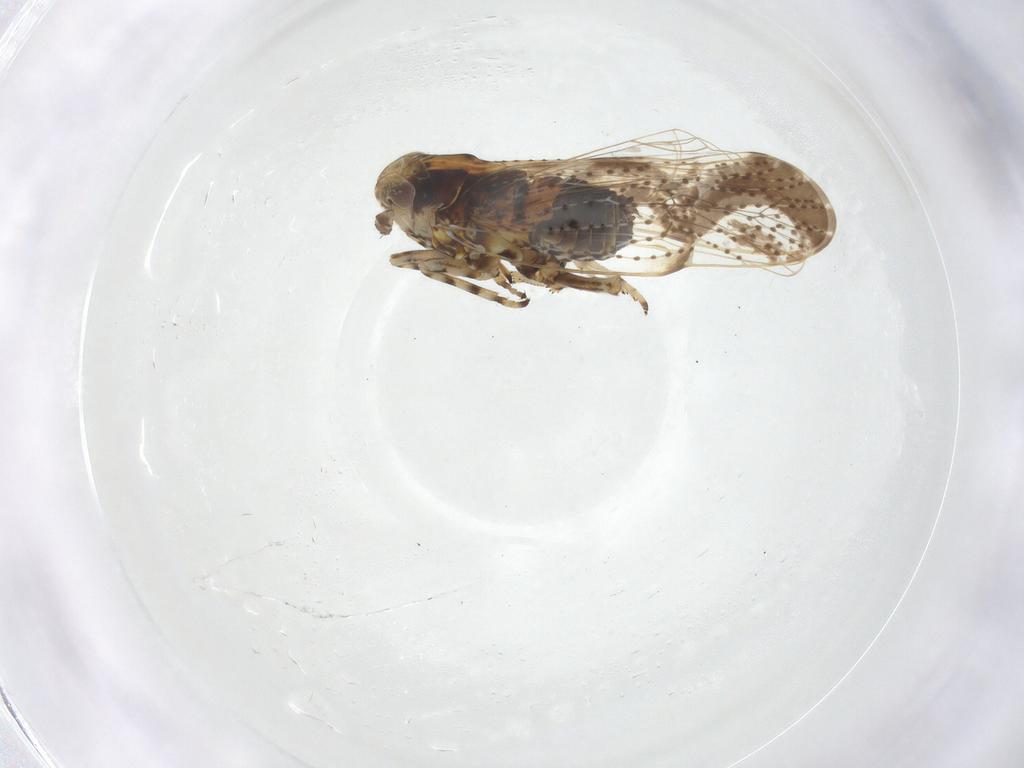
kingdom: Animalia
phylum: Arthropoda
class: Insecta
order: Hemiptera
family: Delphacidae
